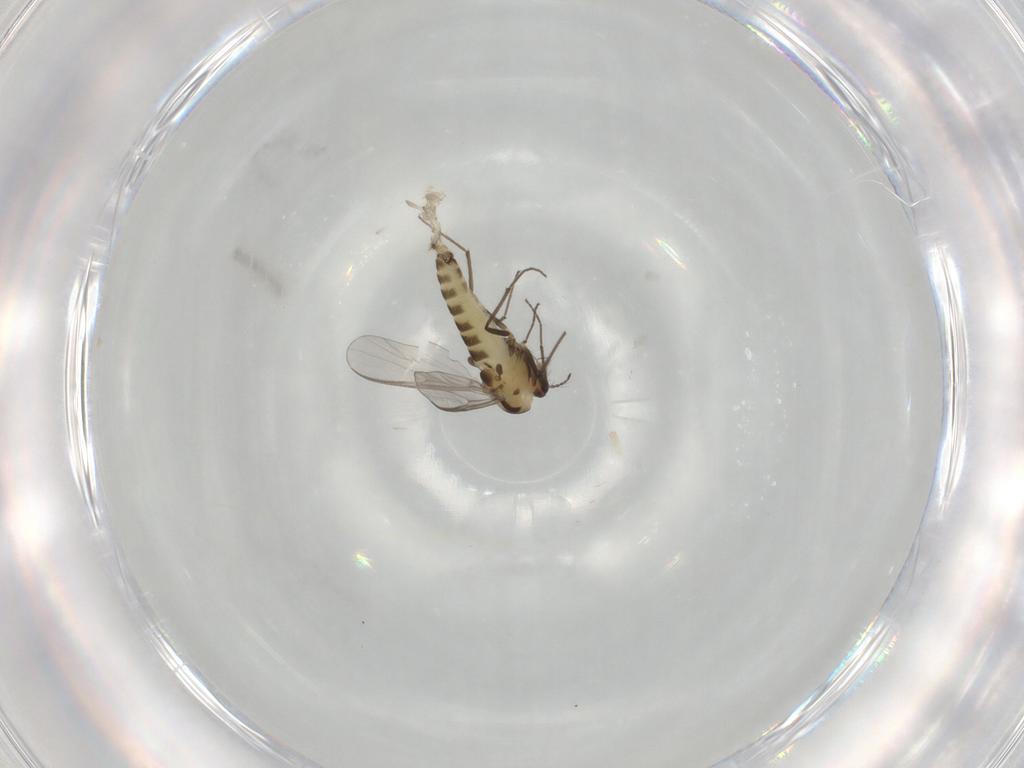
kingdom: Animalia
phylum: Arthropoda
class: Insecta
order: Diptera
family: Chironomidae
